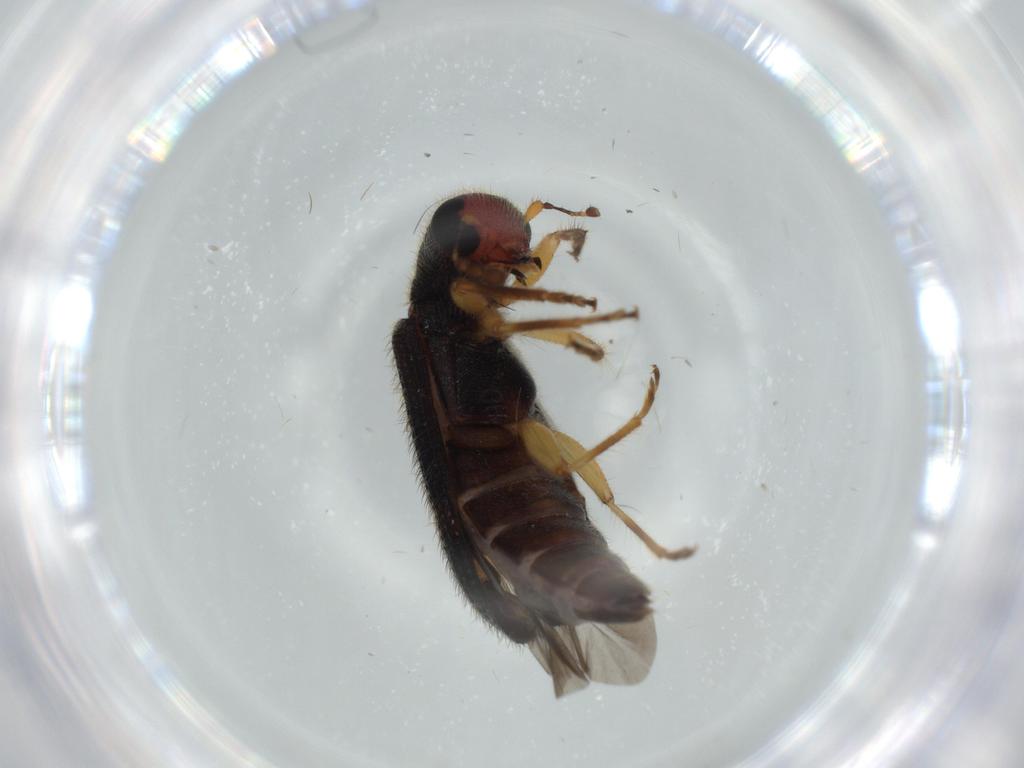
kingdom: Animalia
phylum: Arthropoda
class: Insecta
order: Coleoptera
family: Cleridae
